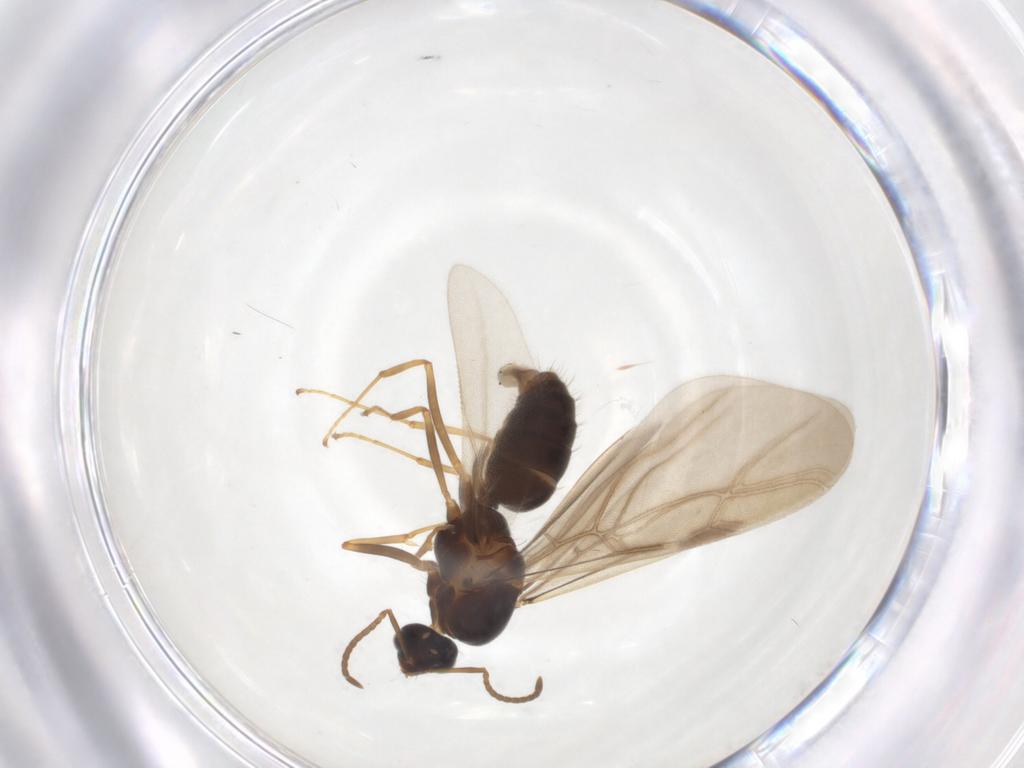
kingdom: Animalia
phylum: Arthropoda
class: Insecta
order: Hymenoptera
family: Formicidae
